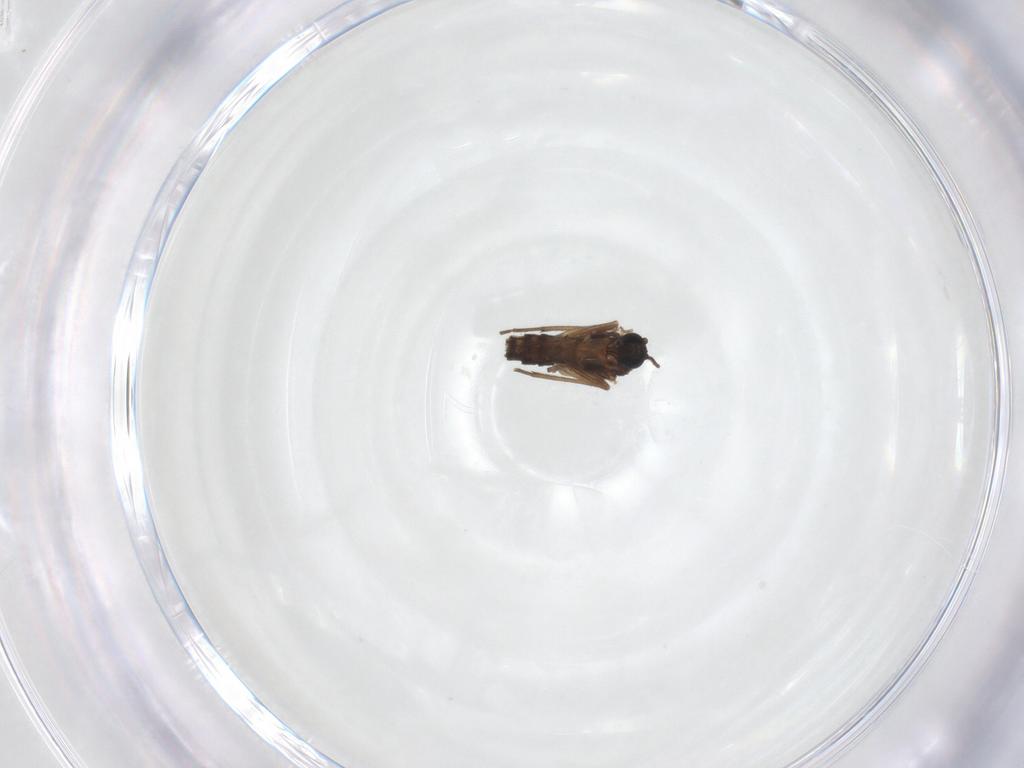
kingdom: Animalia
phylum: Arthropoda
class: Insecta
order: Diptera
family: Sciaridae
